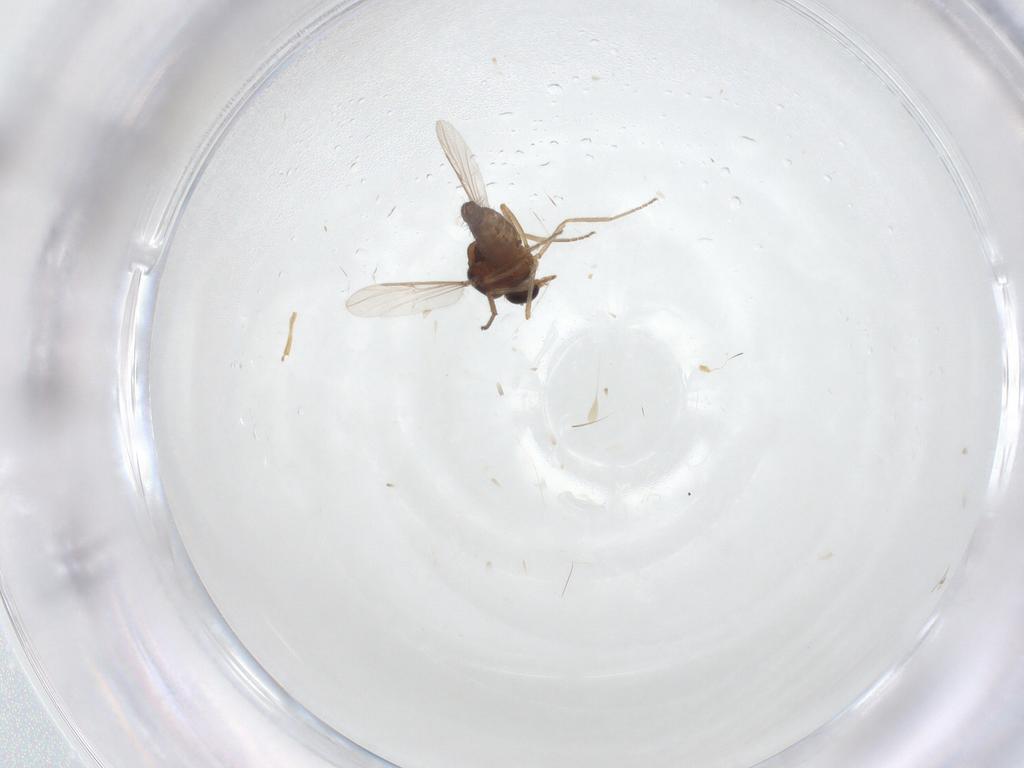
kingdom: Animalia
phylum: Arthropoda
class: Insecta
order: Diptera
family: Ceratopogonidae
